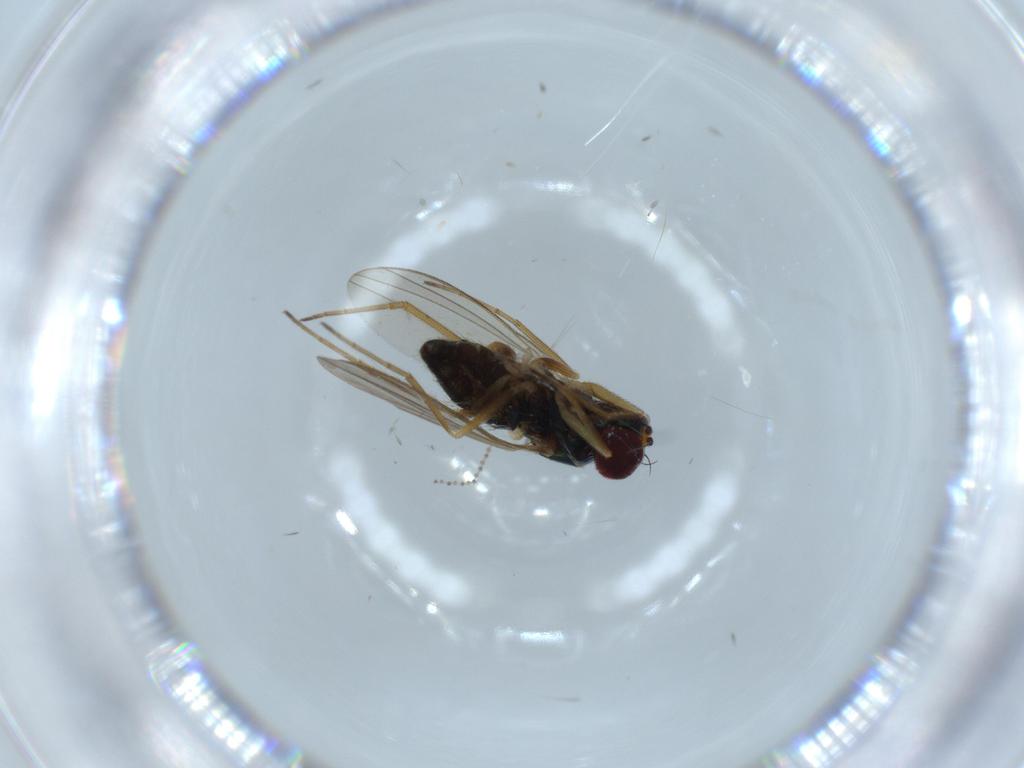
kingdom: Animalia
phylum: Arthropoda
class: Insecta
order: Diptera
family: Cecidomyiidae
